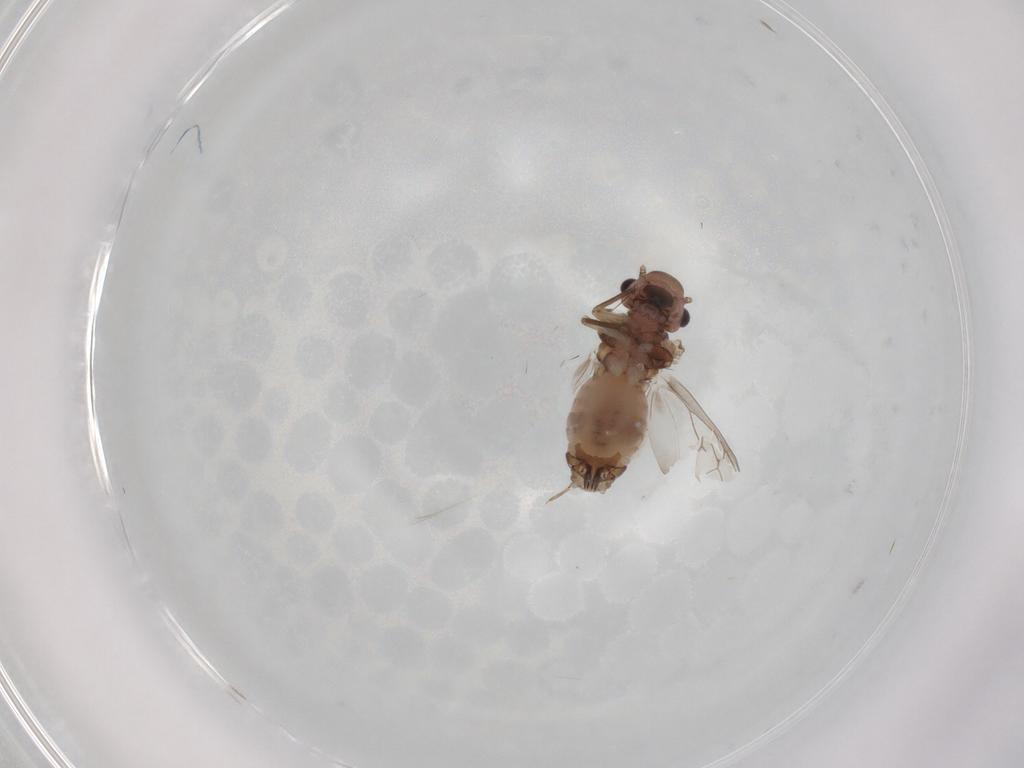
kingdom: Animalia
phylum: Arthropoda
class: Insecta
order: Psocodea
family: Peripsocidae
